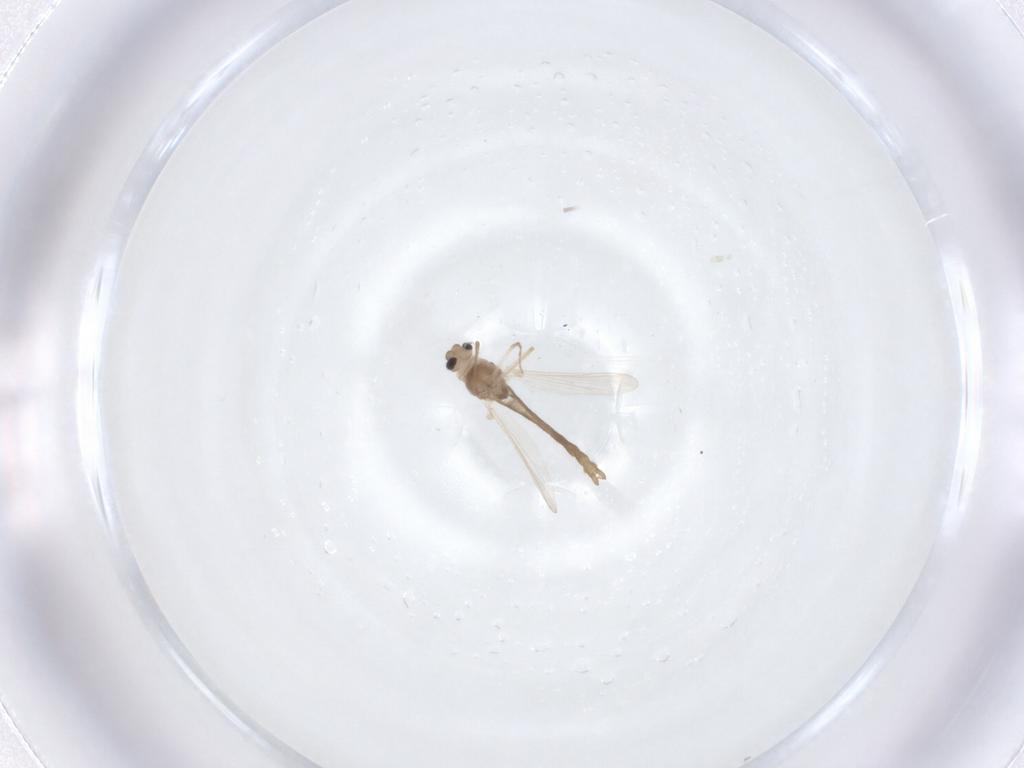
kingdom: Animalia
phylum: Arthropoda
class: Insecta
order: Diptera
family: Chironomidae
